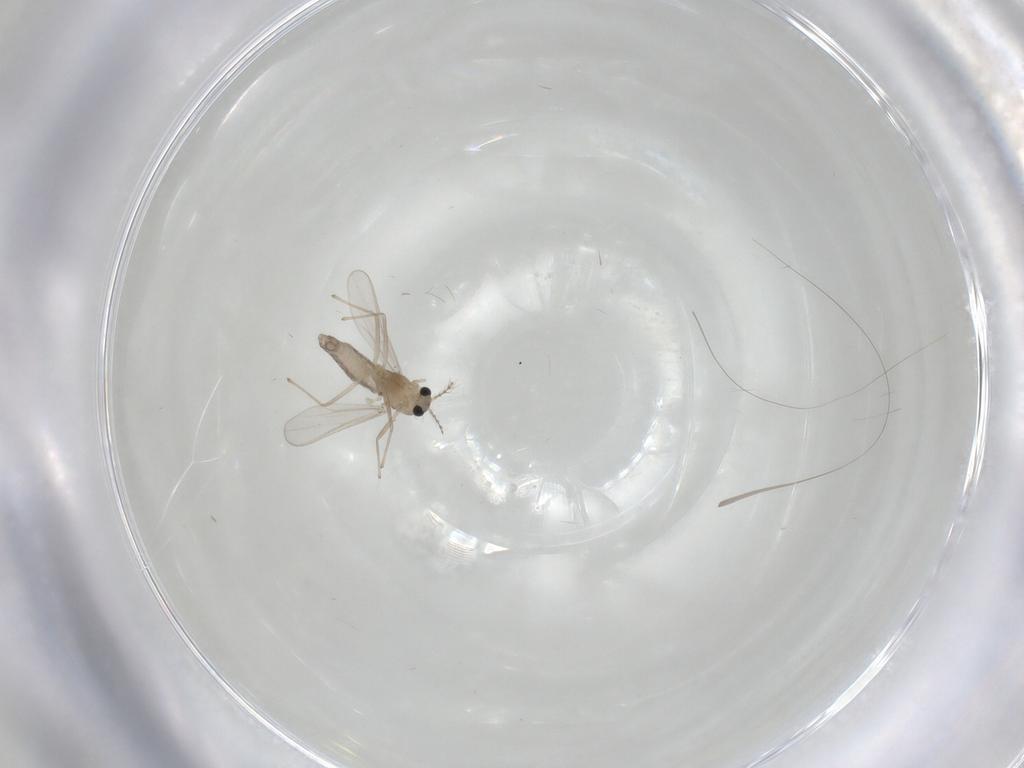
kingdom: Animalia
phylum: Arthropoda
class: Insecta
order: Diptera
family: Chironomidae
